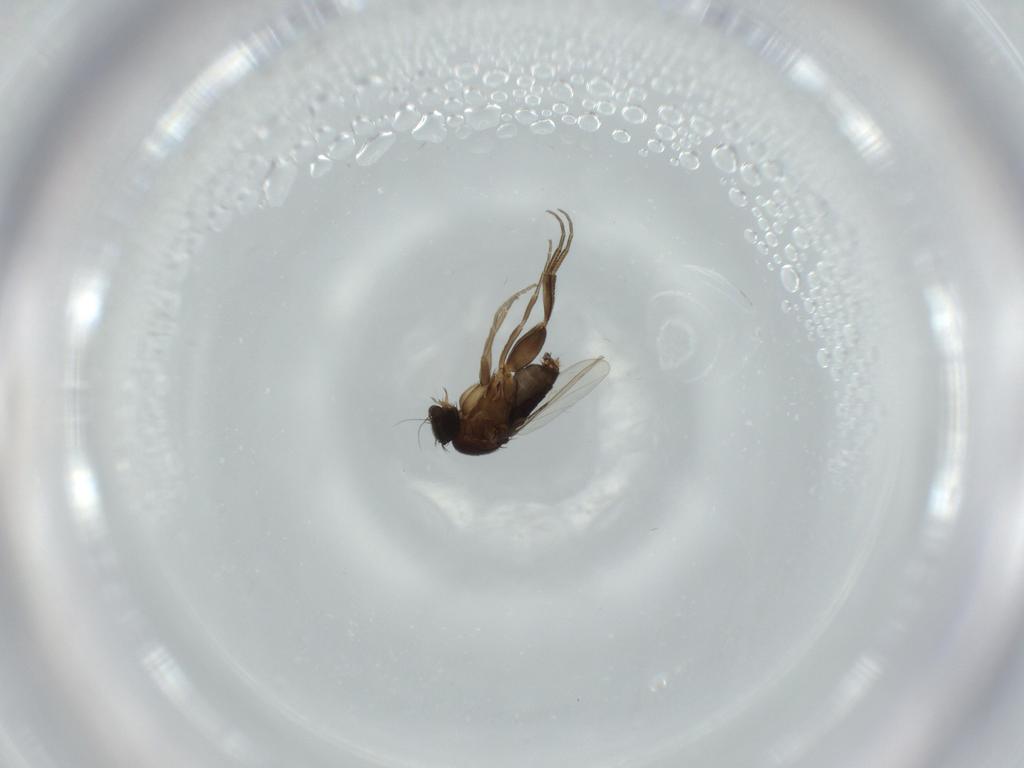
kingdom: Animalia
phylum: Arthropoda
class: Insecta
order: Diptera
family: Phoridae
